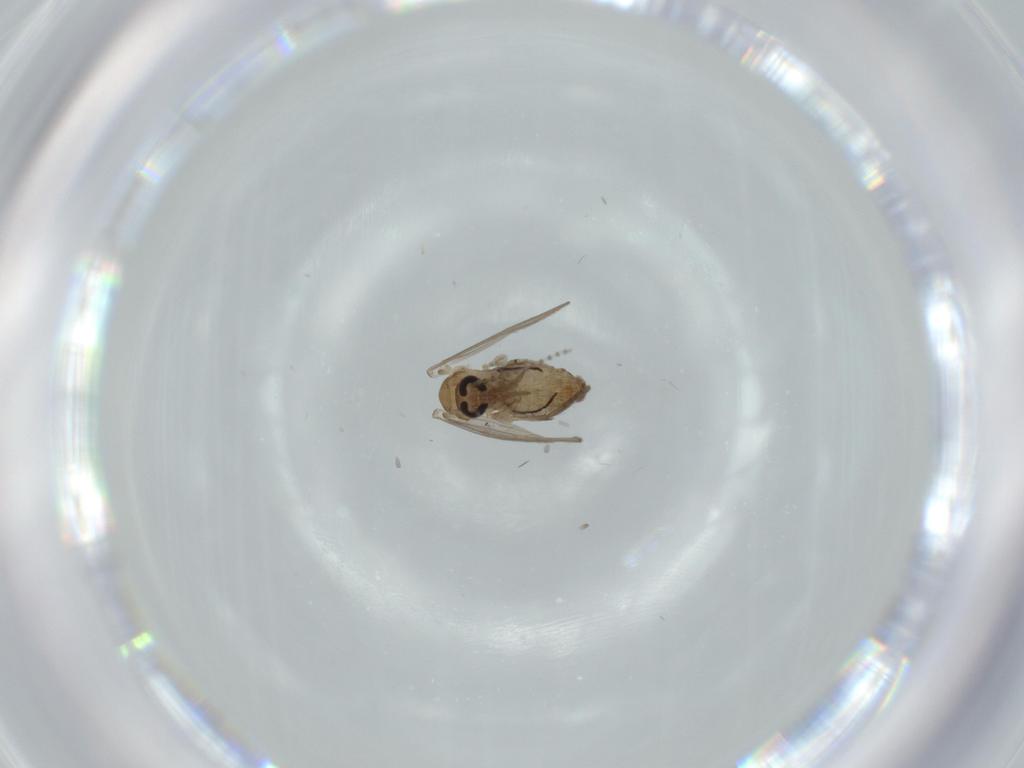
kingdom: Animalia
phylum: Arthropoda
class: Insecta
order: Diptera
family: Psychodidae
